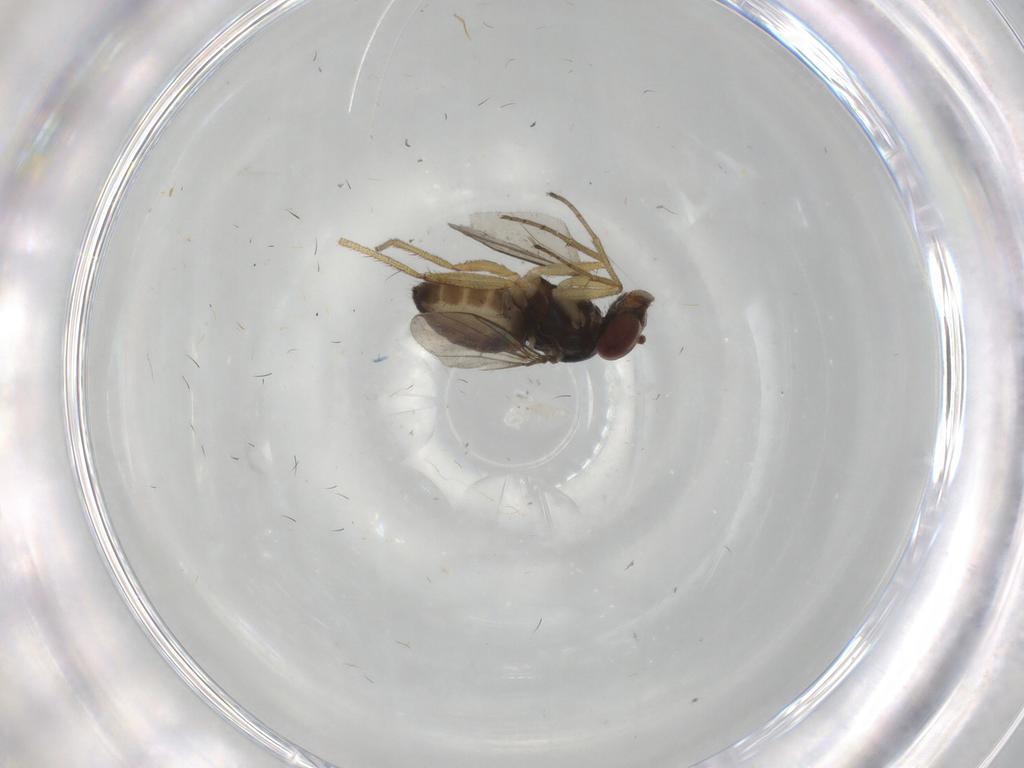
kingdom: Animalia
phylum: Arthropoda
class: Insecta
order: Diptera
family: Dolichopodidae
